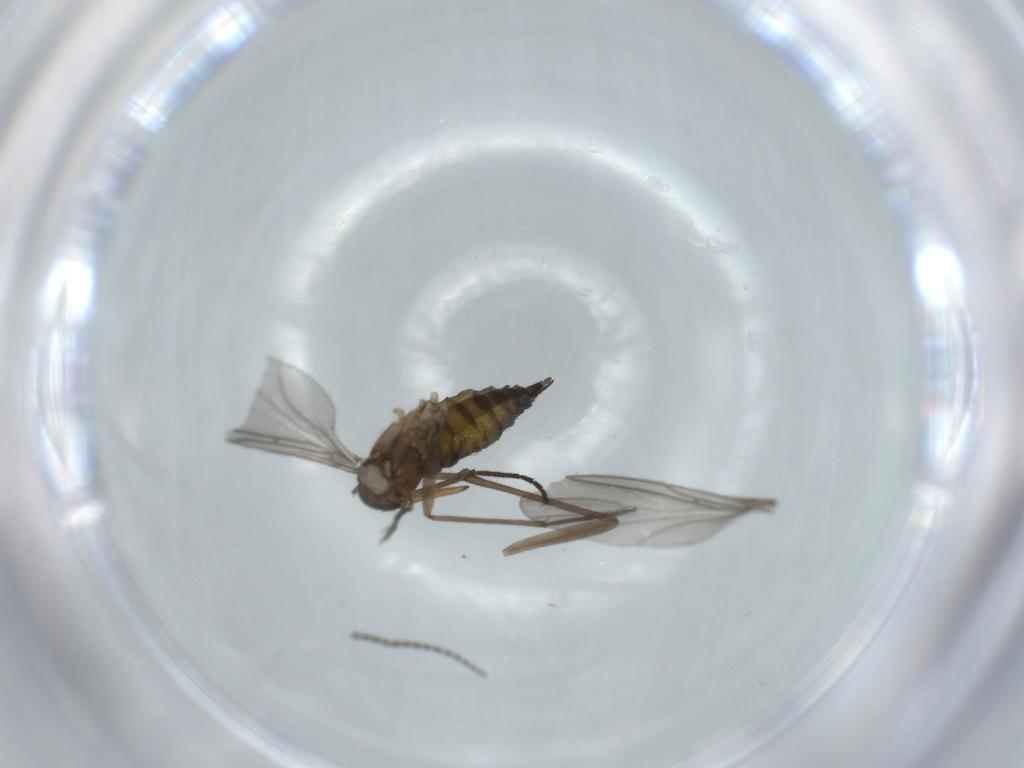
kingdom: Animalia
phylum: Arthropoda
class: Insecta
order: Diptera
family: Sciaridae
